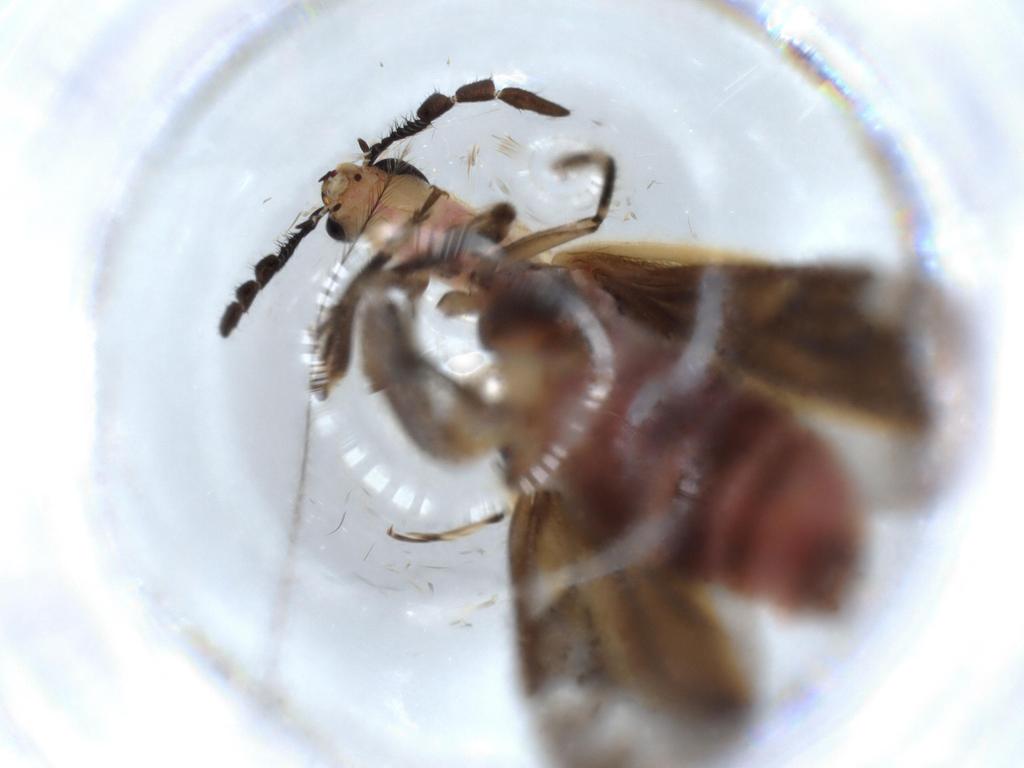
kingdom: Animalia
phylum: Arthropoda
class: Insecta
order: Coleoptera
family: Cleridae
